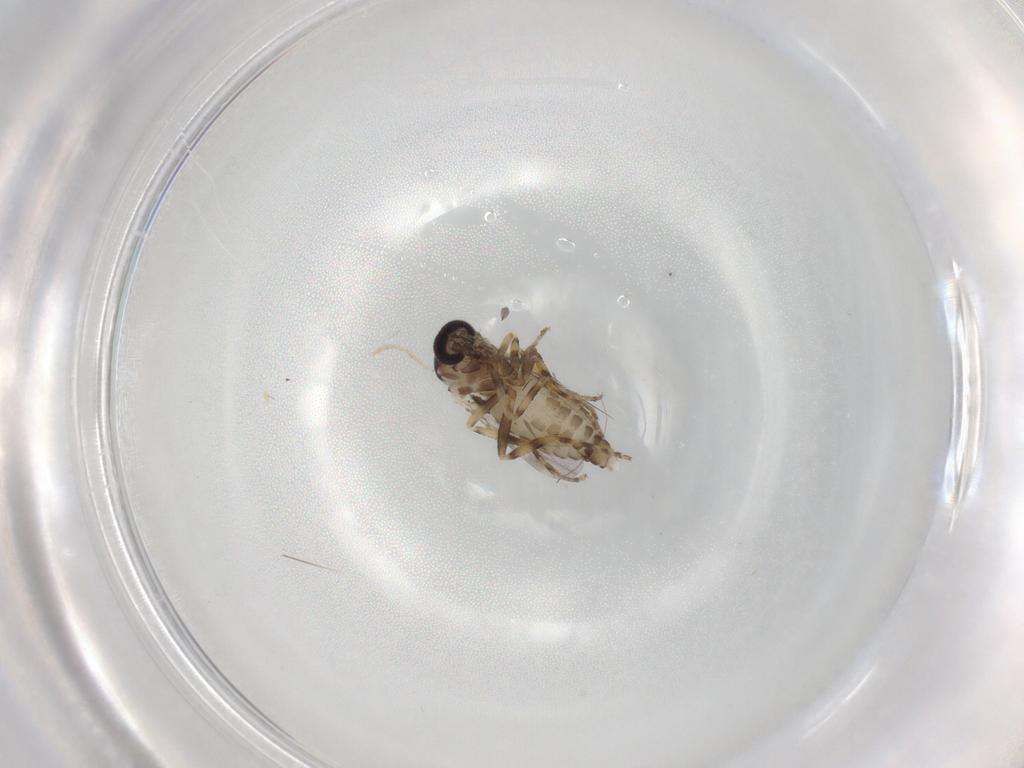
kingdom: Animalia
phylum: Arthropoda
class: Insecta
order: Diptera
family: Ceratopogonidae
